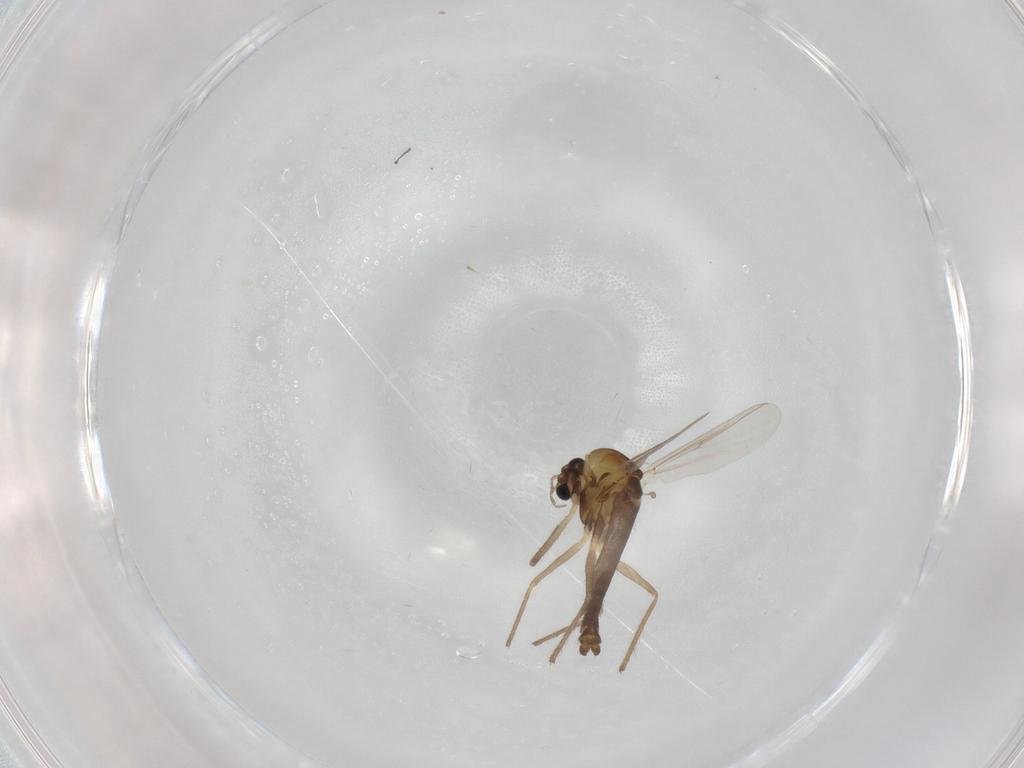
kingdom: Animalia
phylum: Arthropoda
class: Insecta
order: Diptera
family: Chironomidae
